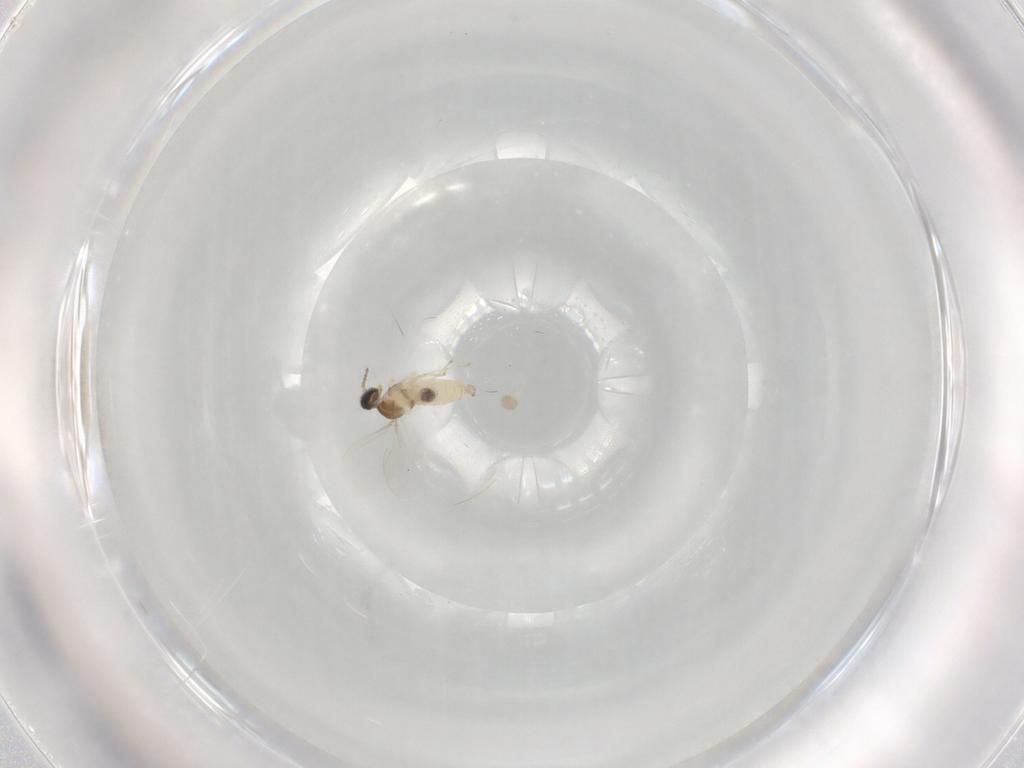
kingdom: Animalia
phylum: Arthropoda
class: Insecta
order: Diptera
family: Cecidomyiidae
